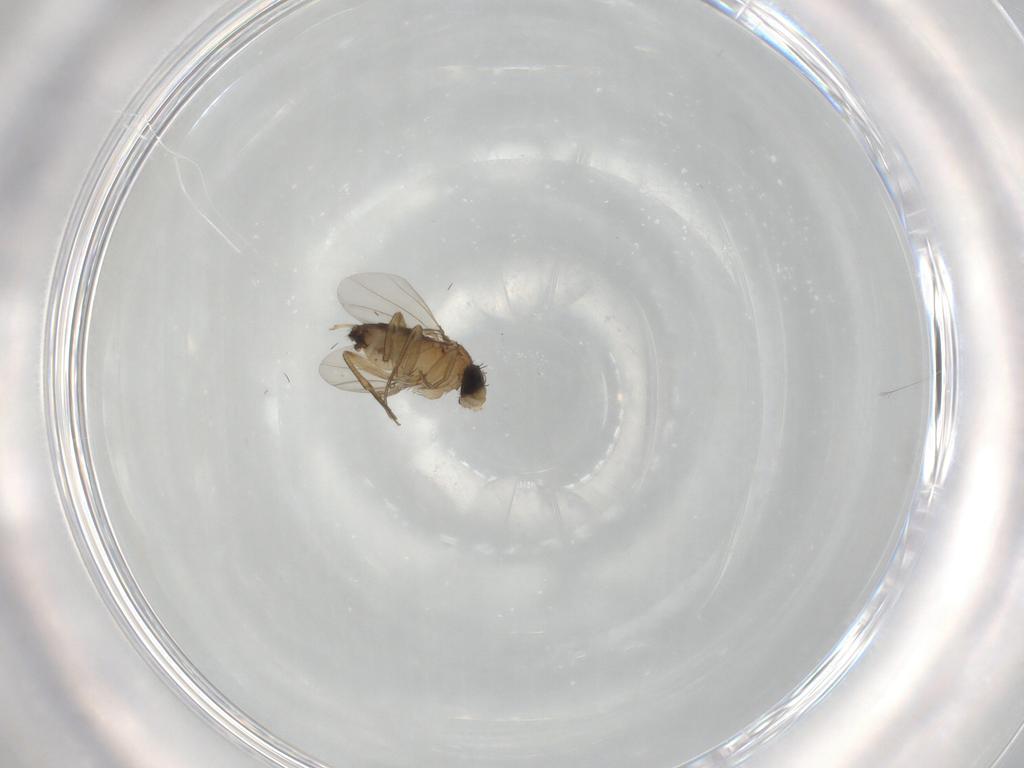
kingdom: Animalia
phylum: Arthropoda
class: Insecta
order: Diptera
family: Phoridae
